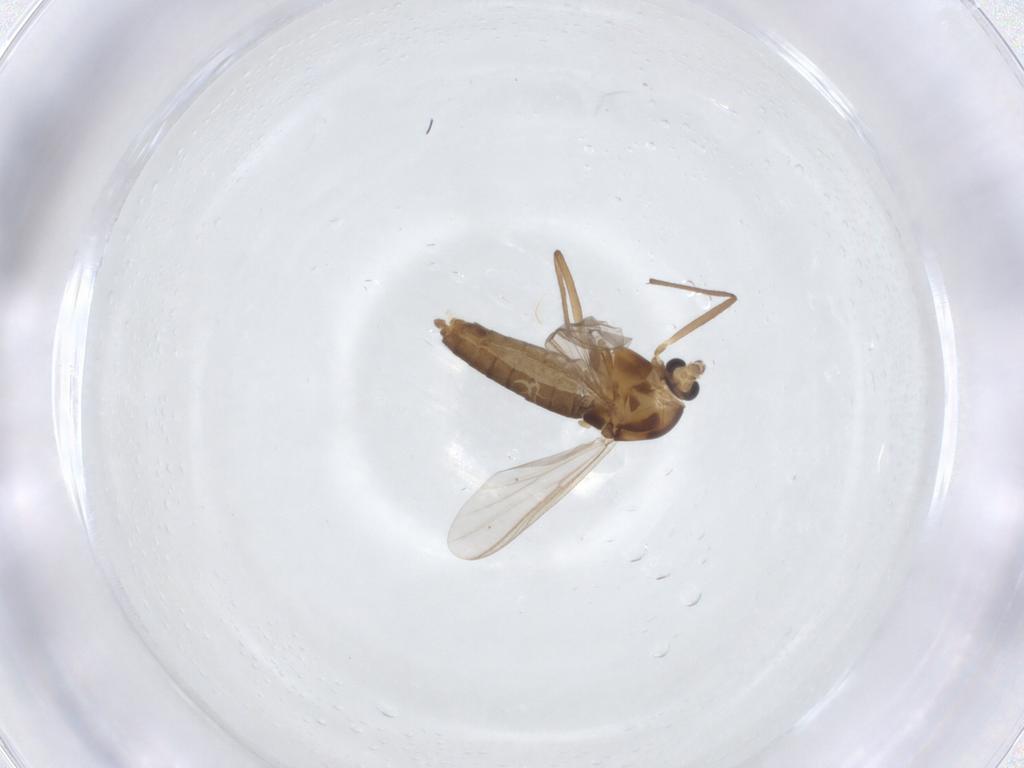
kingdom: Animalia
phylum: Arthropoda
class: Insecta
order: Diptera
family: Chironomidae
